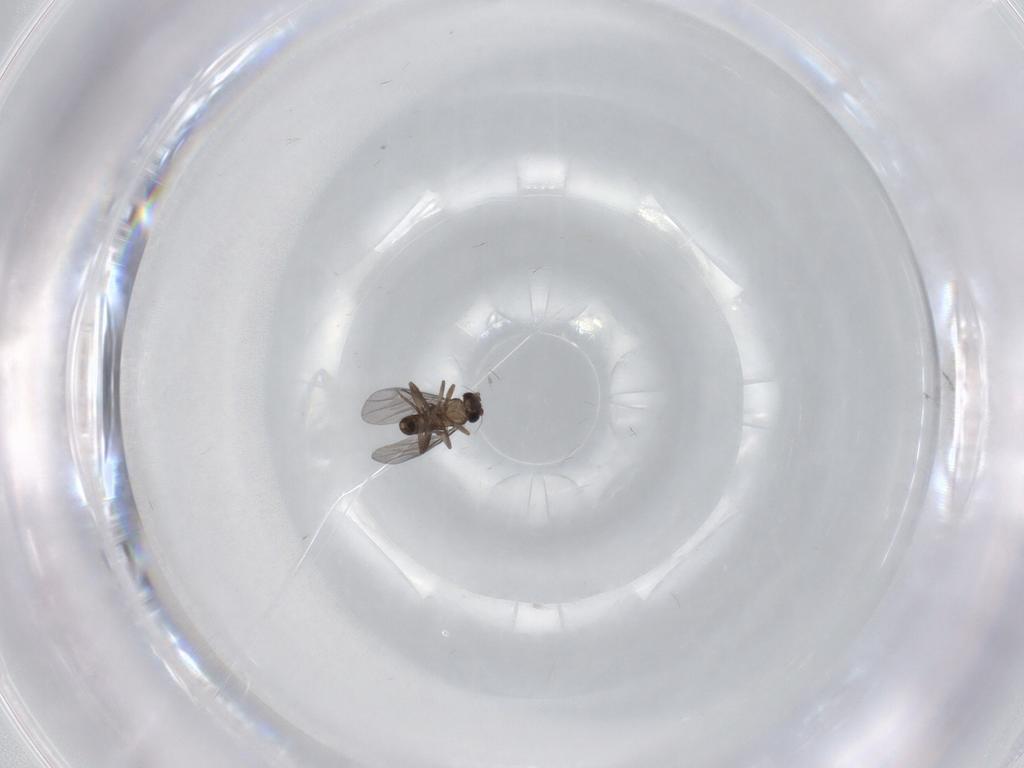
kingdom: Animalia
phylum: Arthropoda
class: Insecta
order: Diptera
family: Chironomidae
